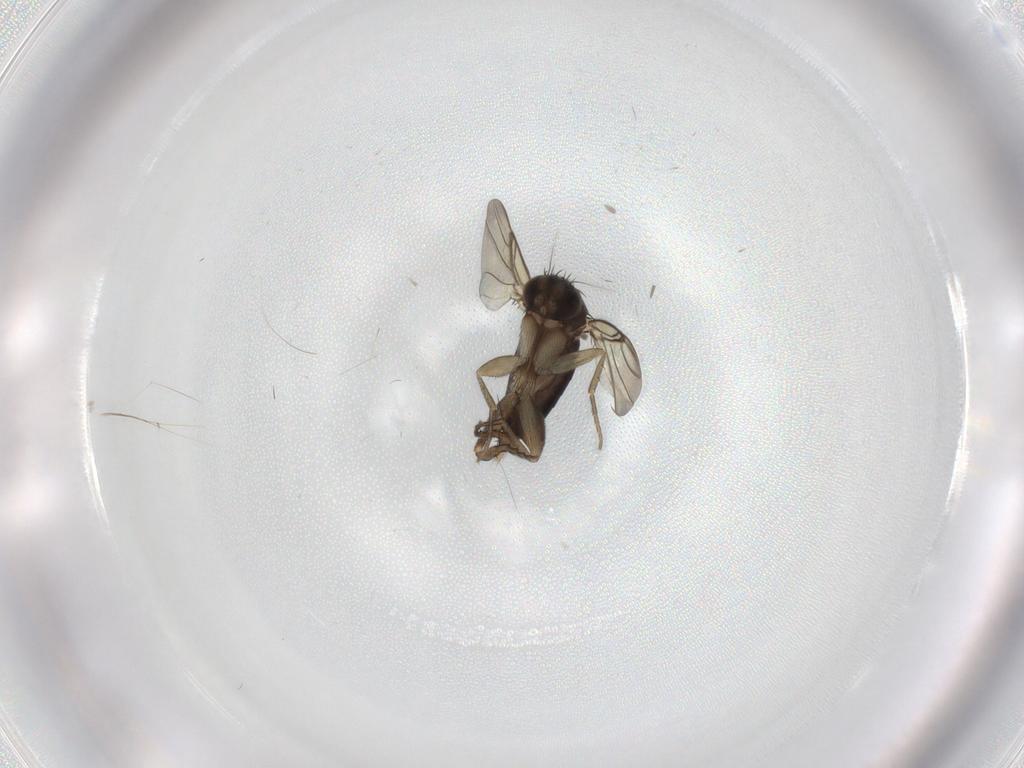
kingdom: Animalia
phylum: Arthropoda
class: Insecta
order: Diptera
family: Phoridae
